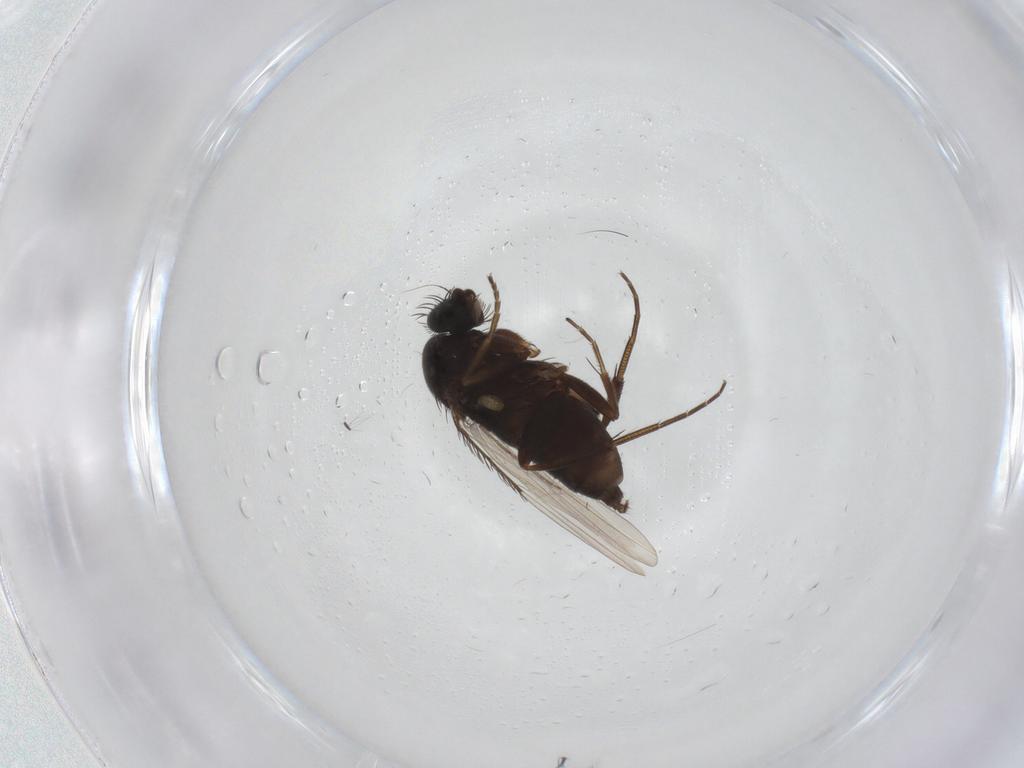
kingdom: Animalia
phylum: Arthropoda
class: Insecta
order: Diptera
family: Phoridae
